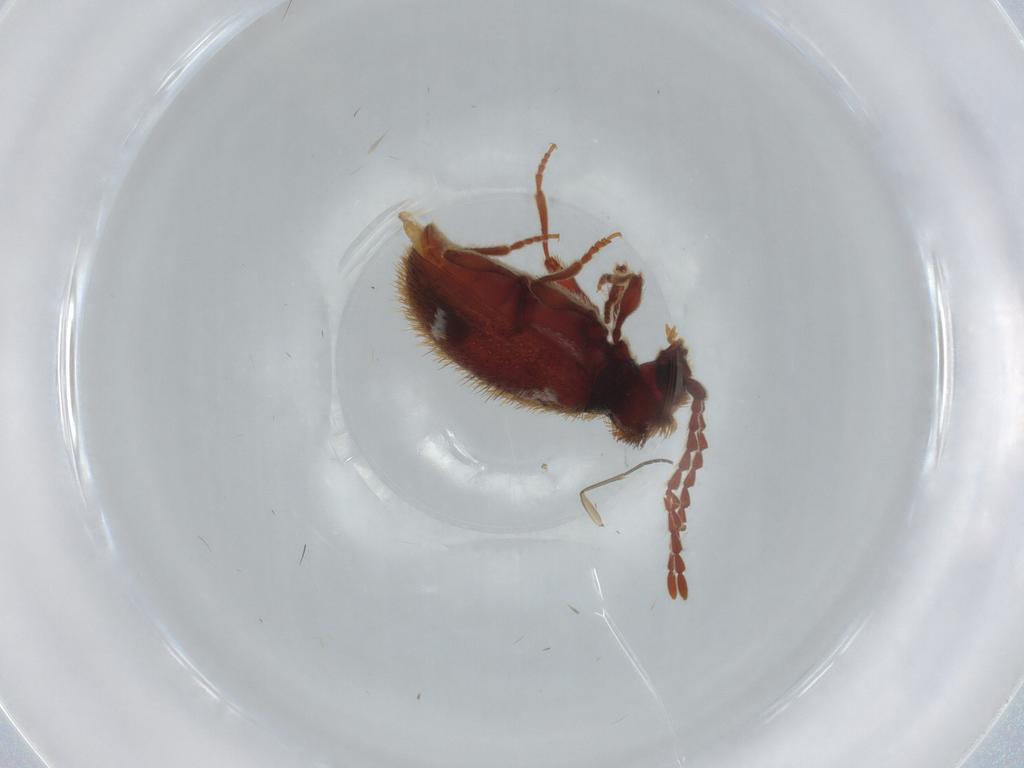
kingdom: Animalia
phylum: Arthropoda
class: Insecta
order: Coleoptera
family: Ptinidae
